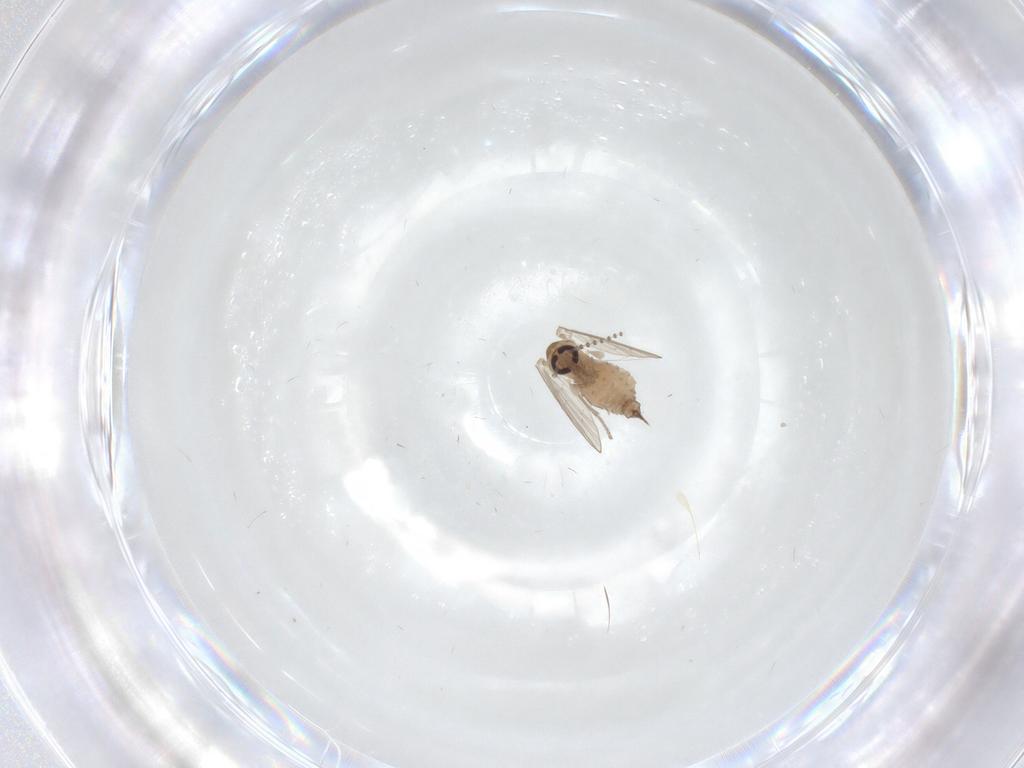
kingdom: Animalia
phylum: Arthropoda
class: Insecta
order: Diptera
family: Psychodidae
